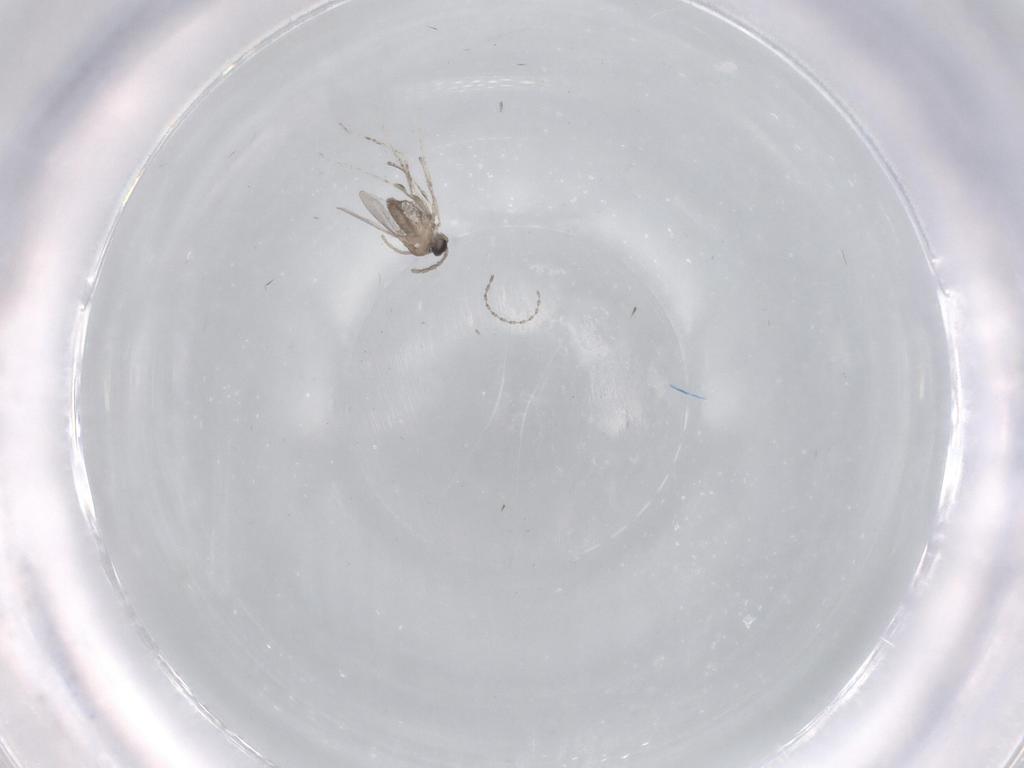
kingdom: Animalia
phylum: Arthropoda
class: Insecta
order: Diptera
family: Cecidomyiidae
